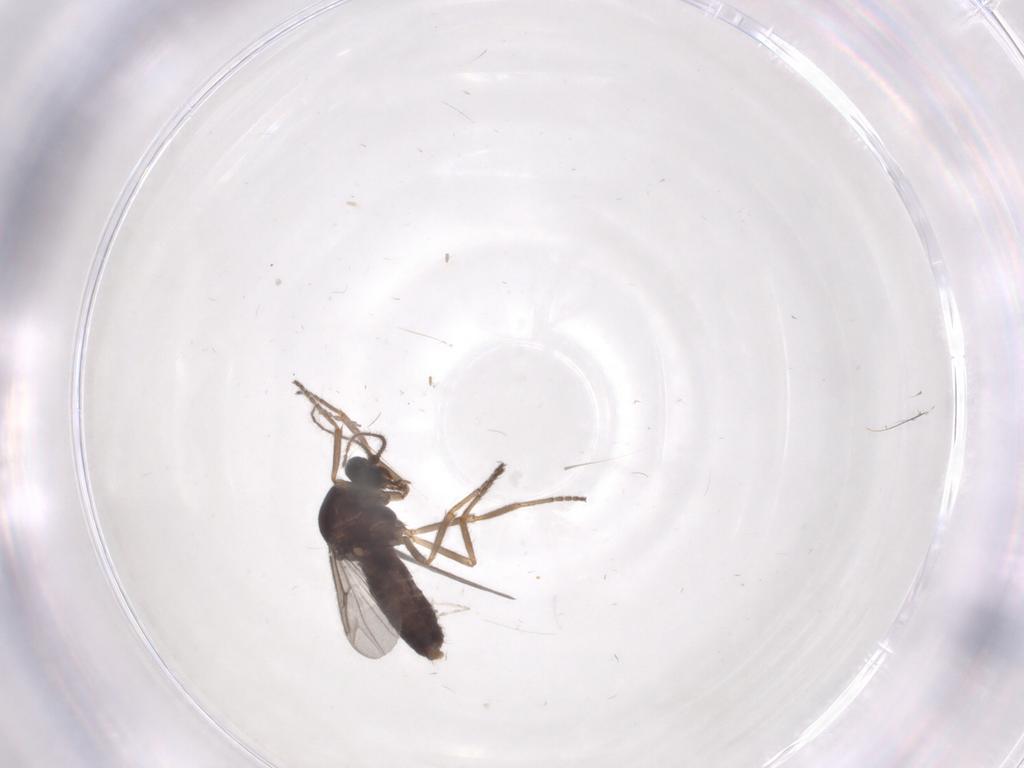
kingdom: Animalia
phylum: Arthropoda
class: Insecta
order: Diptera
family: Ceratopogonidae
